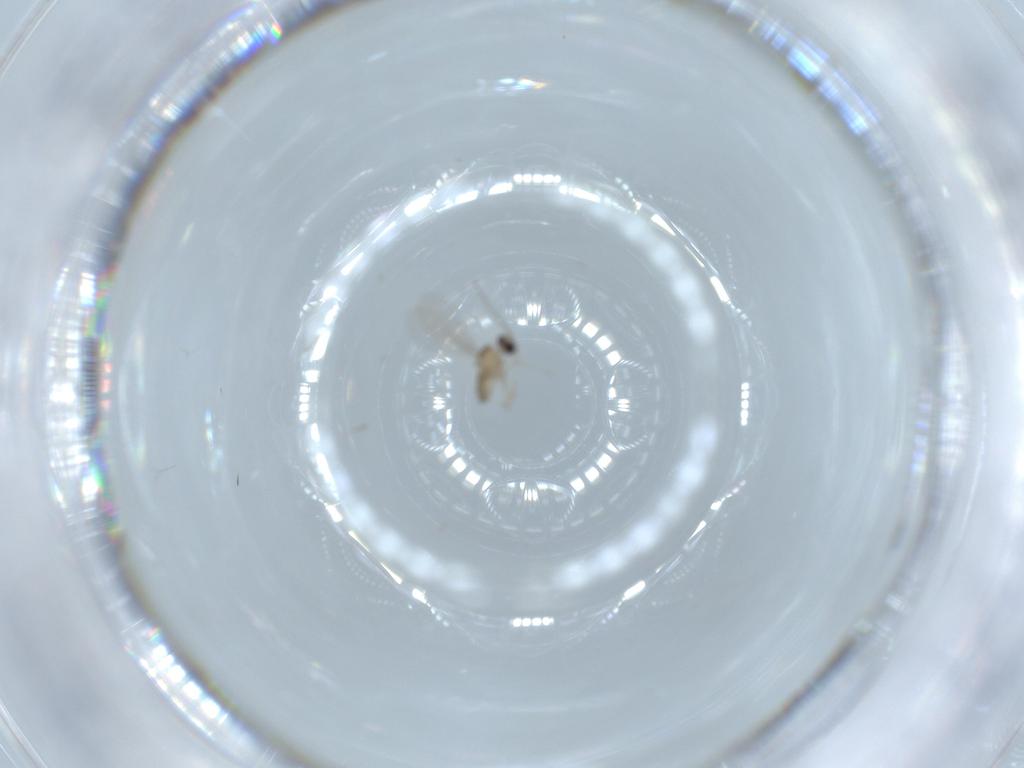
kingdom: Animalia
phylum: Arthropoda
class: Insecta
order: Diptera
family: Cecidomyiidae
